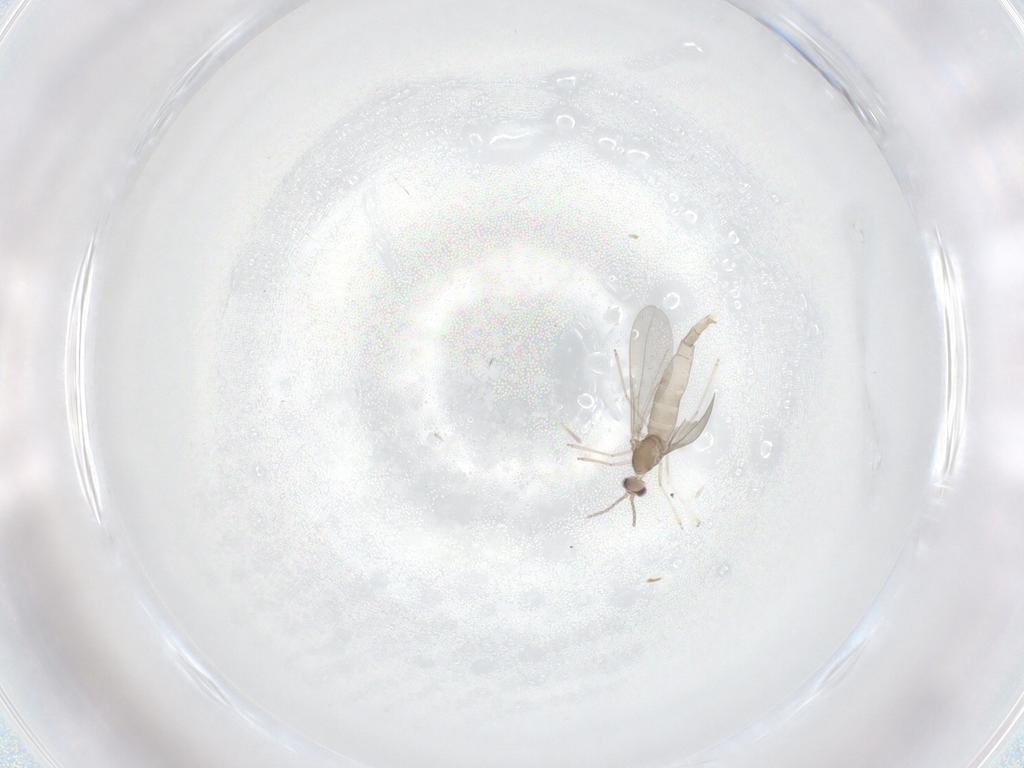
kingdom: Animalia
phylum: Arthropoda
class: Insecta
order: Diptera
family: Cecidomyiidae
